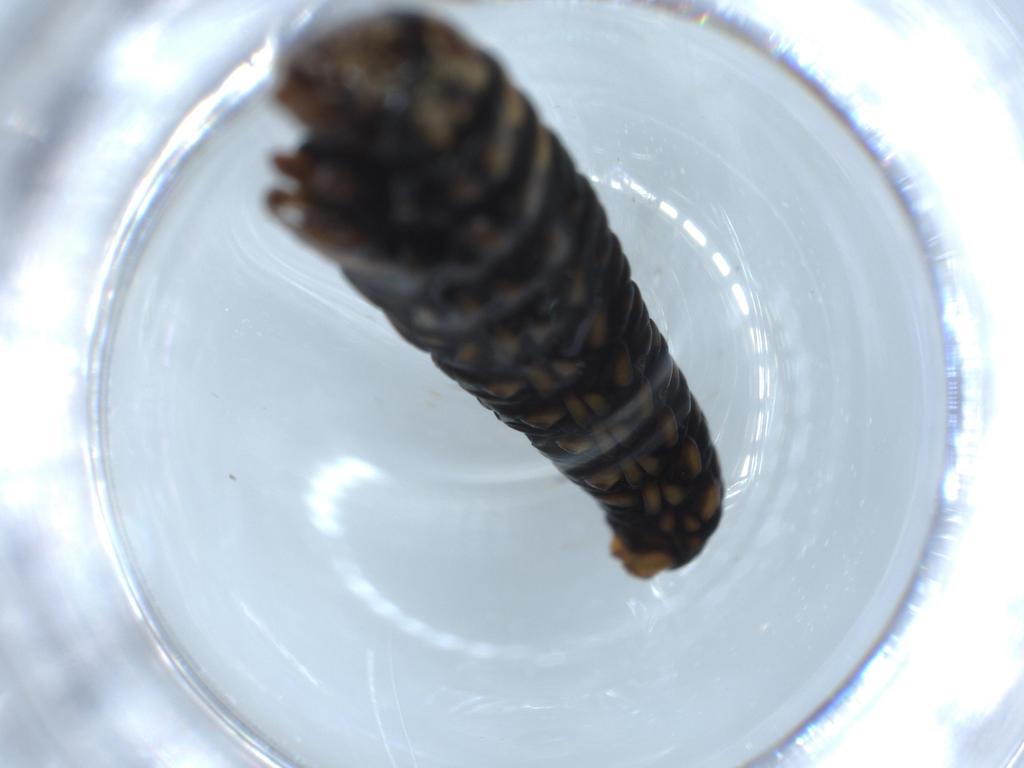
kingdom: Animalia
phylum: Arthropoda
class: Insecta
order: Lepidoptera
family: Psychidae
